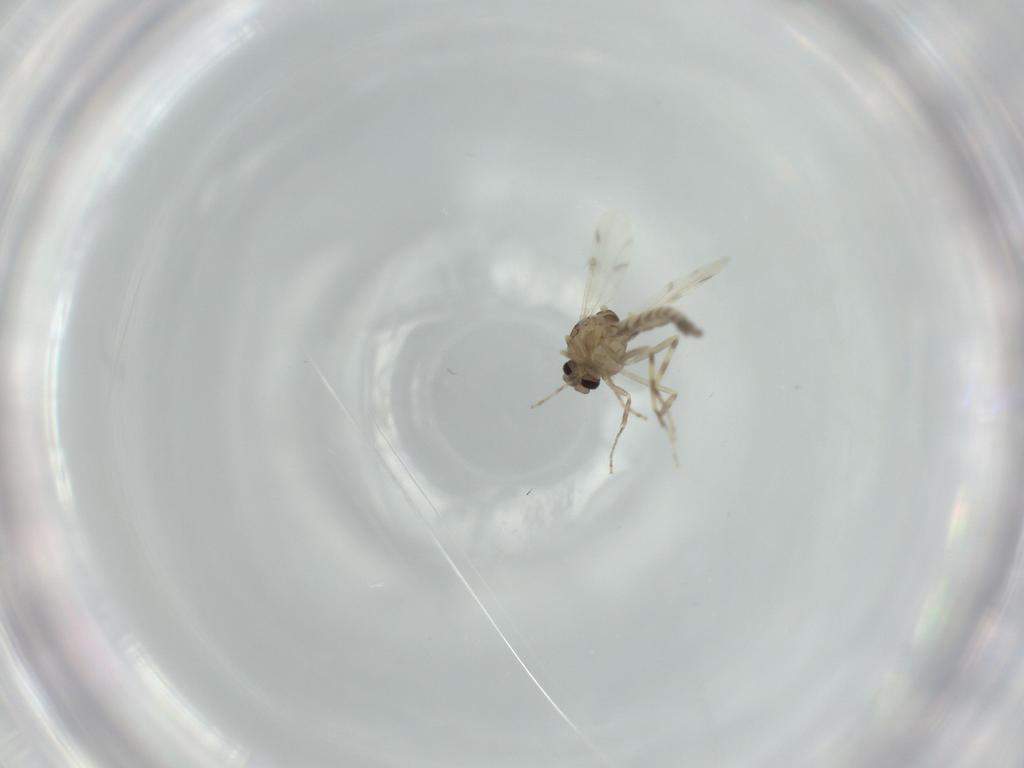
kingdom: Animalia
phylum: Arthropoda
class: Insecta
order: Diptera
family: Ceratopogonidae
